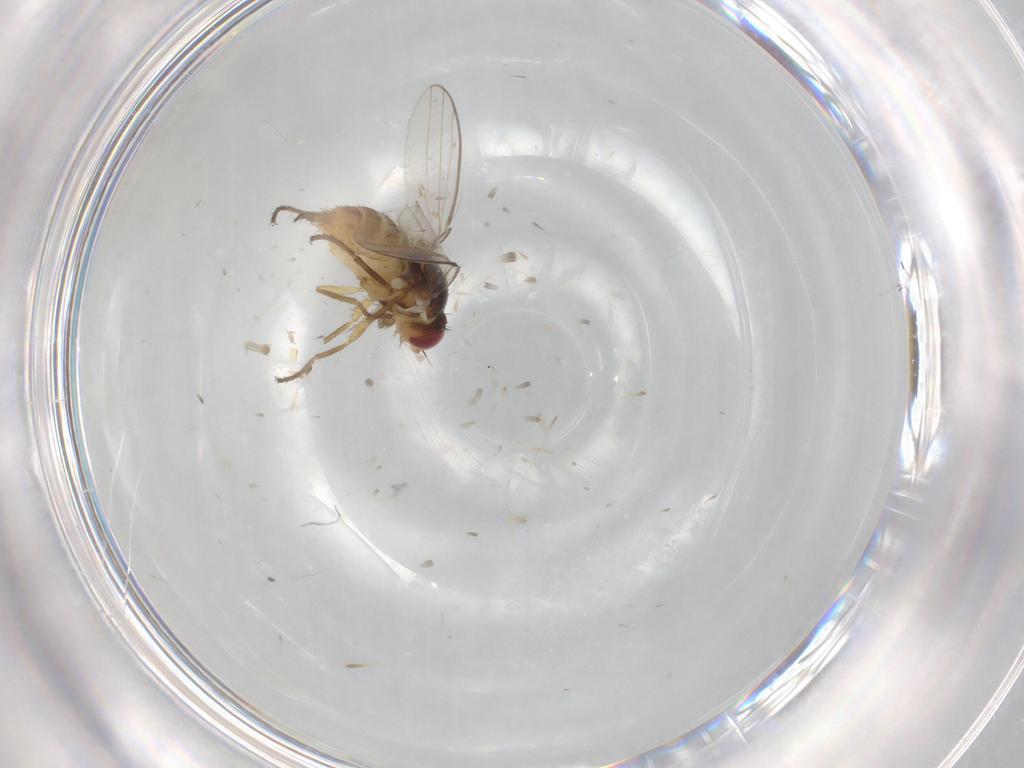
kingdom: Animalia
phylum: Arthropoda
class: Insecta
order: Diptera
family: Chloropidae
